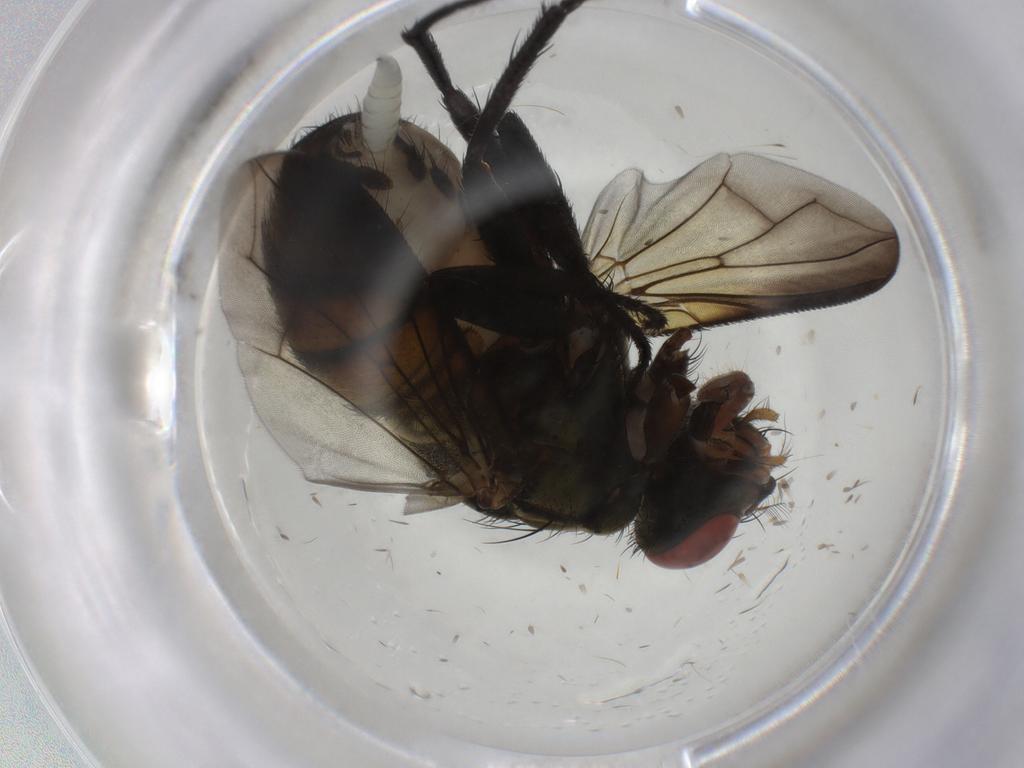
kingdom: Animalia
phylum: Arthropoda
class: Insecta
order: Diptera
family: Sarcophagidae
